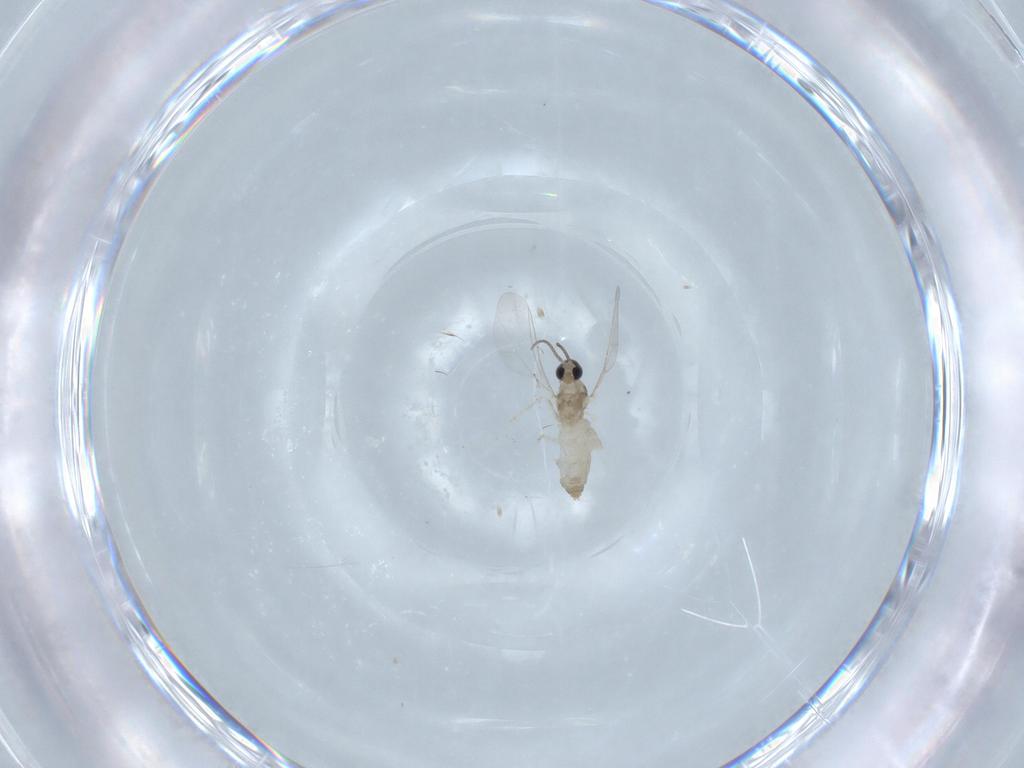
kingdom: Animalia
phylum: Arthropoda
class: Insecta
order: Diptera
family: Cecidomyiidae
